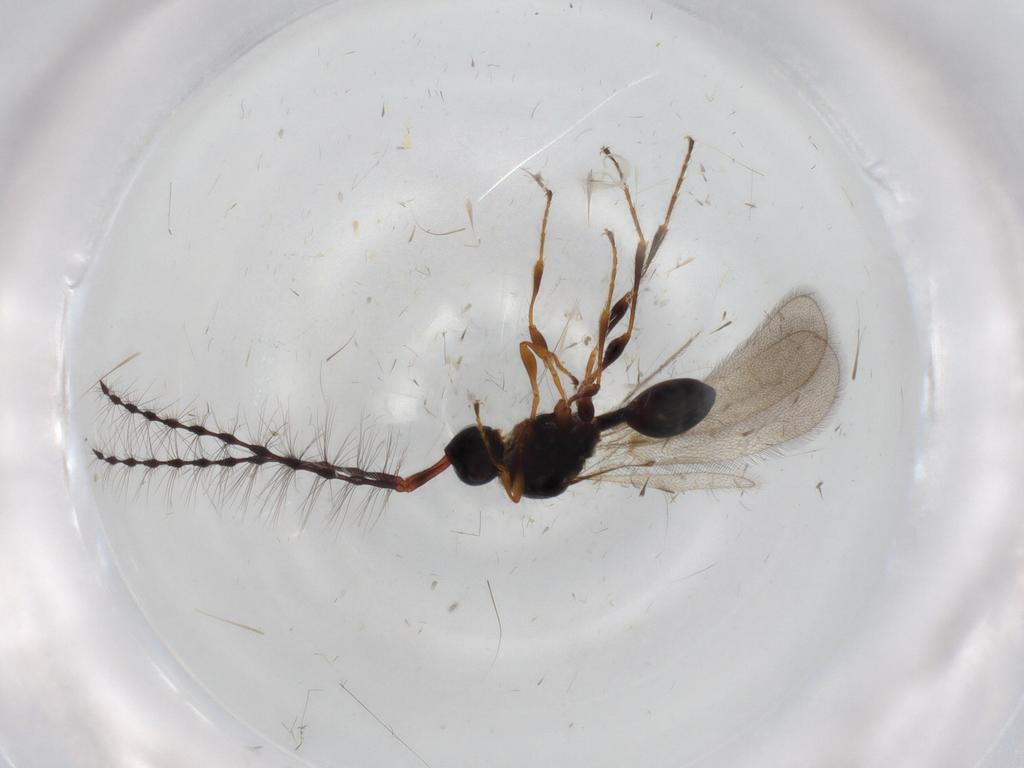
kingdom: Animalia
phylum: Arthropoda
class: Insecta
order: Hymenoptera
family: Diapriidae
